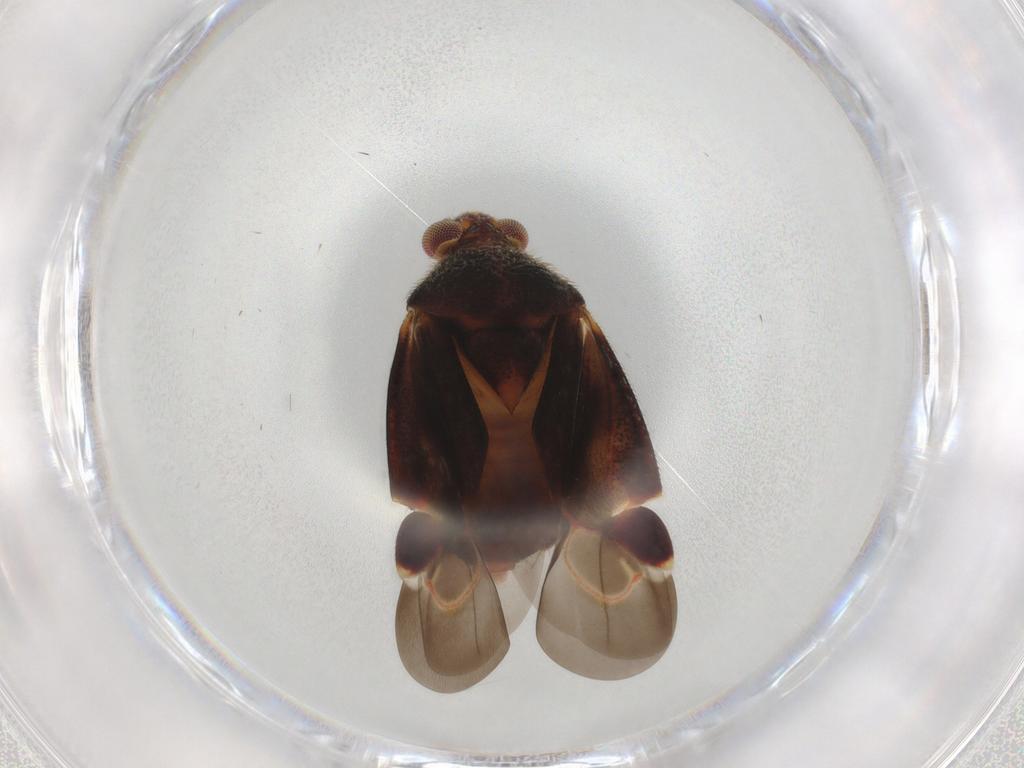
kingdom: Animalia
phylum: Arthropoda
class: Insecta
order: Hemiptera
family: Miridae
